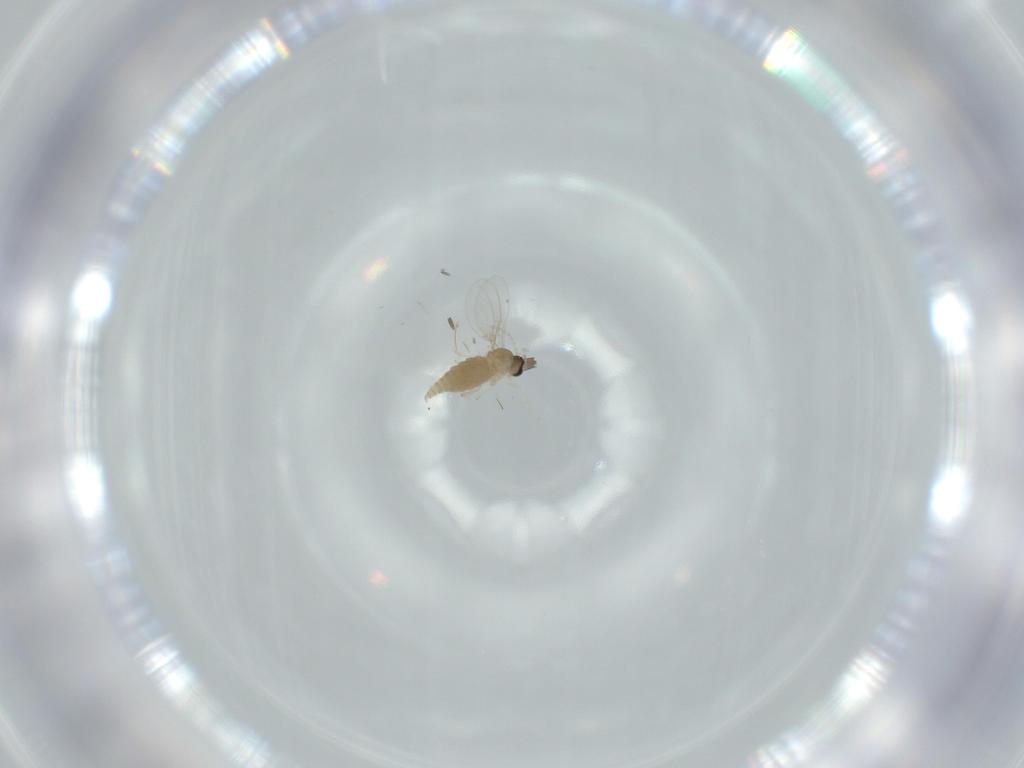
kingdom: Animalia
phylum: Arthropoda
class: Insecta
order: Diptera
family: Cecidomyiidae
